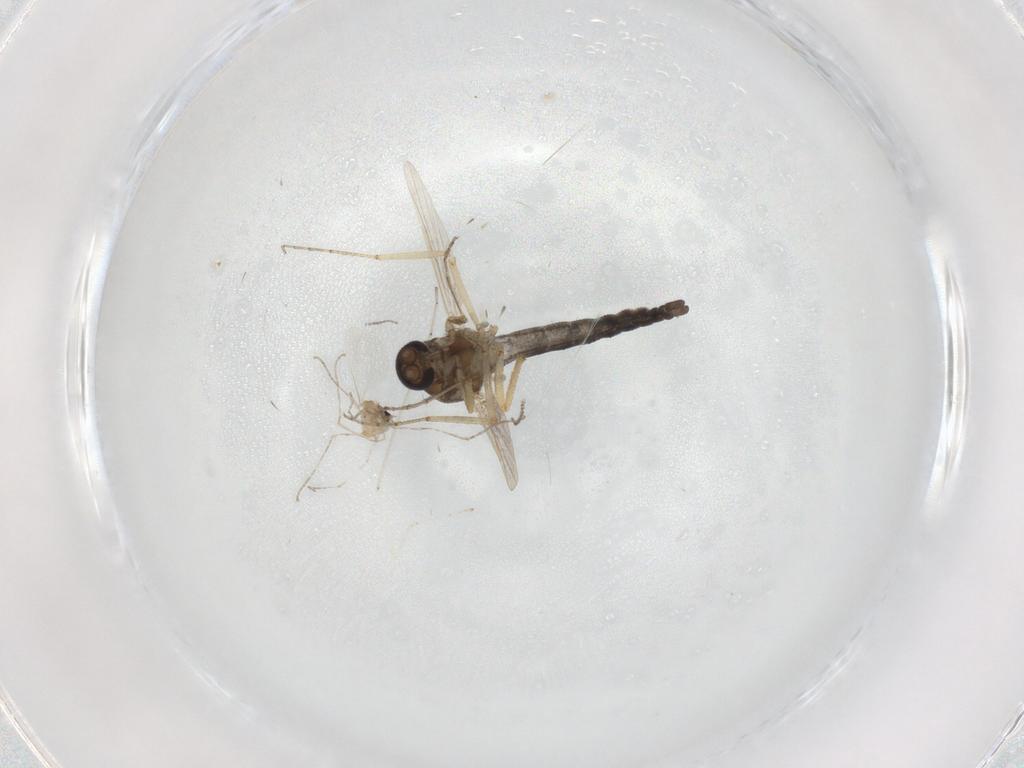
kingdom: Animalia
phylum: Arthropoda
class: Insecta
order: Diptera
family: Ceratopogonidae
